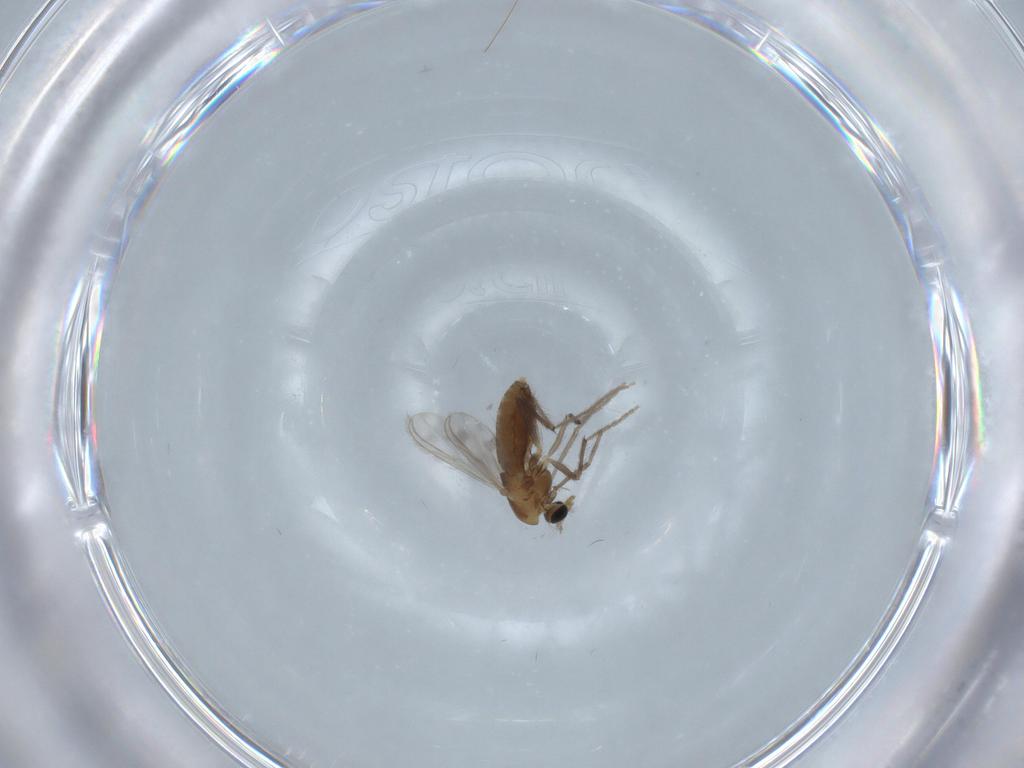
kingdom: Animalia
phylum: Arthropoda
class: Insecta
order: Diptera
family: Chironomidae
